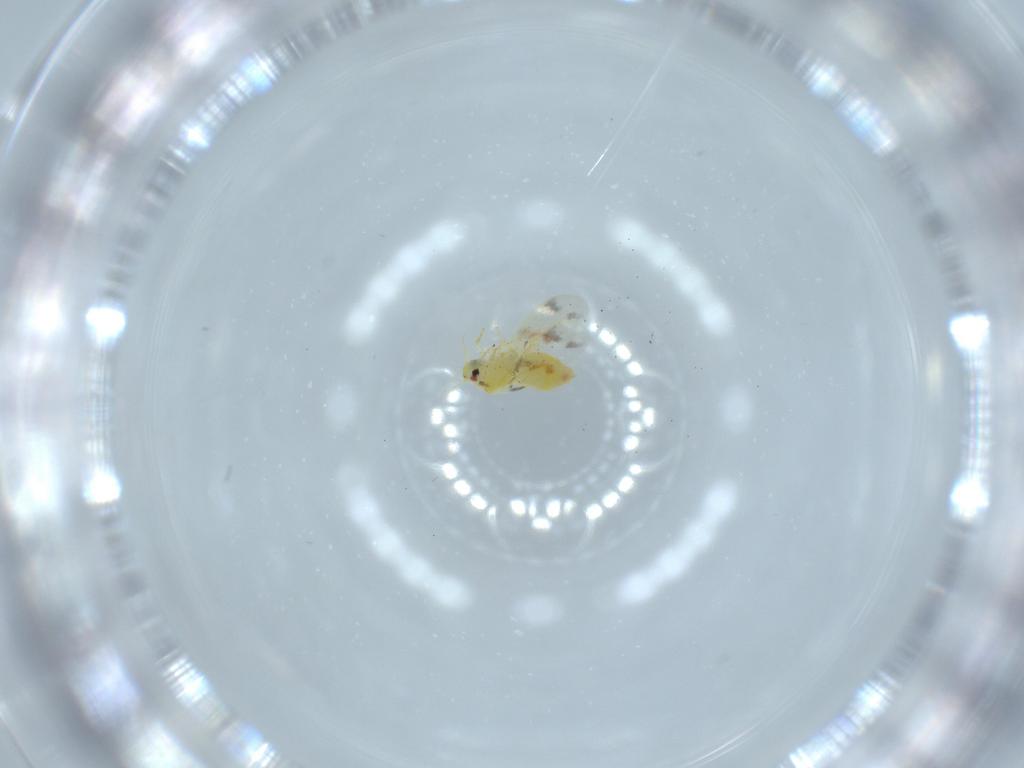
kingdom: Animalia
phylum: Arthropoda
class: Insecta
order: Hemiptera
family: Aleyrodidae
